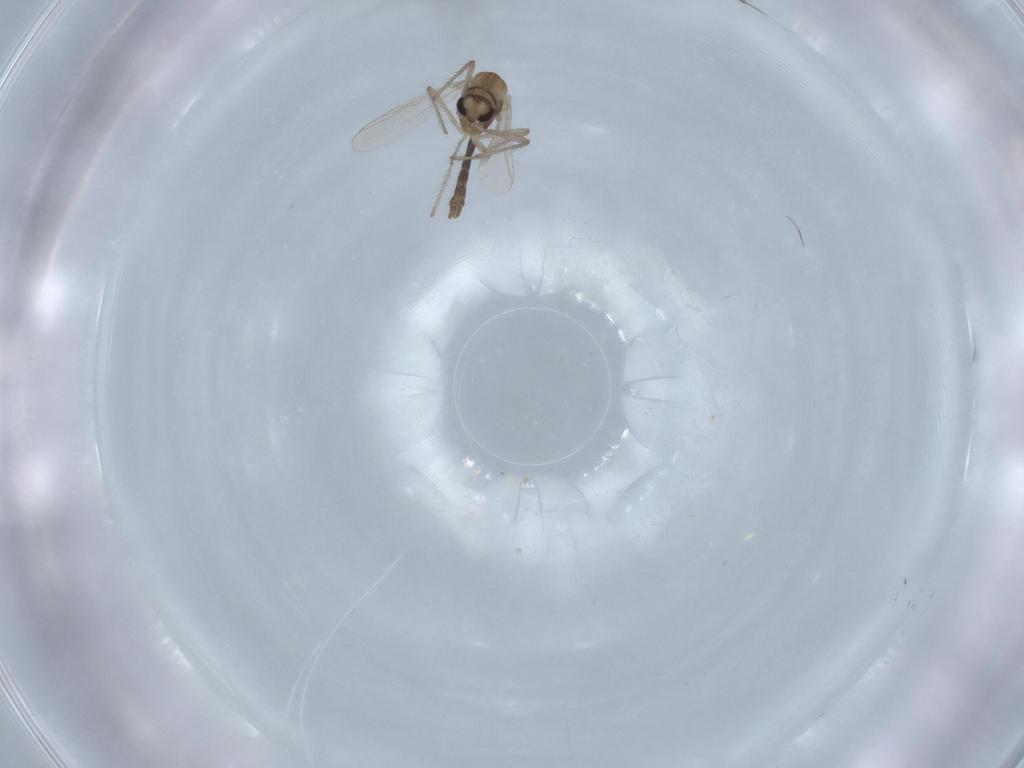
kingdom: Animalia
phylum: Arthropoda
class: Insecta
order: Diptera
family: Chironomidae
